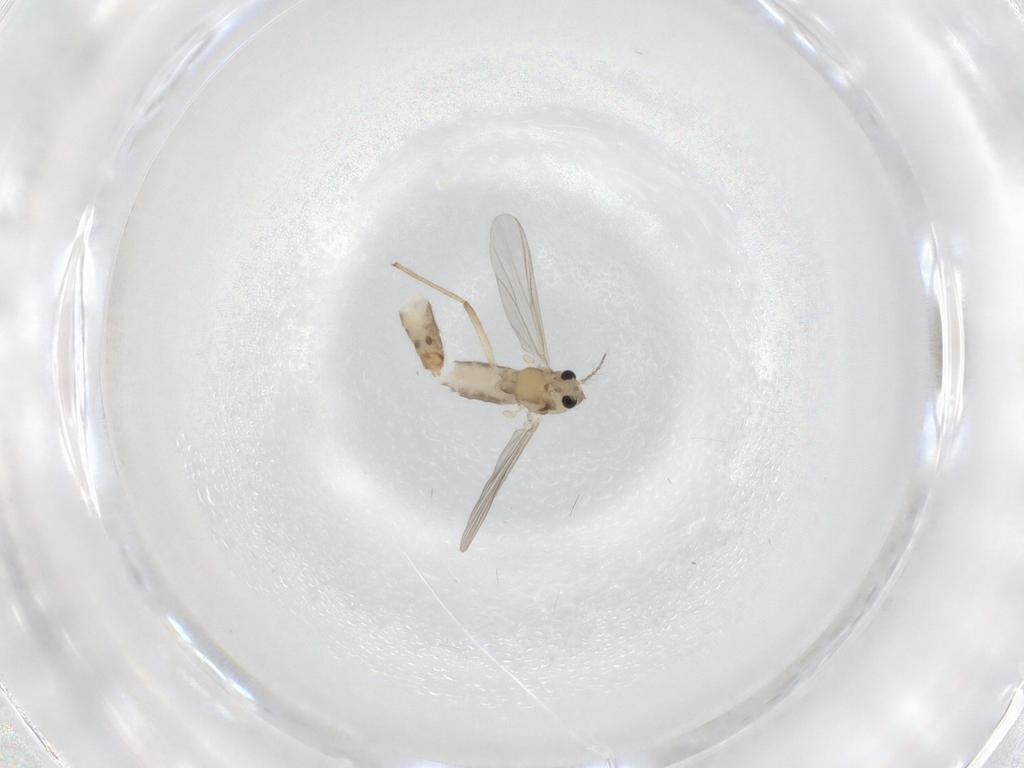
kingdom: Animalia
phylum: Arthropoda
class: Insecta
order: Diptera
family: Chironomidae
